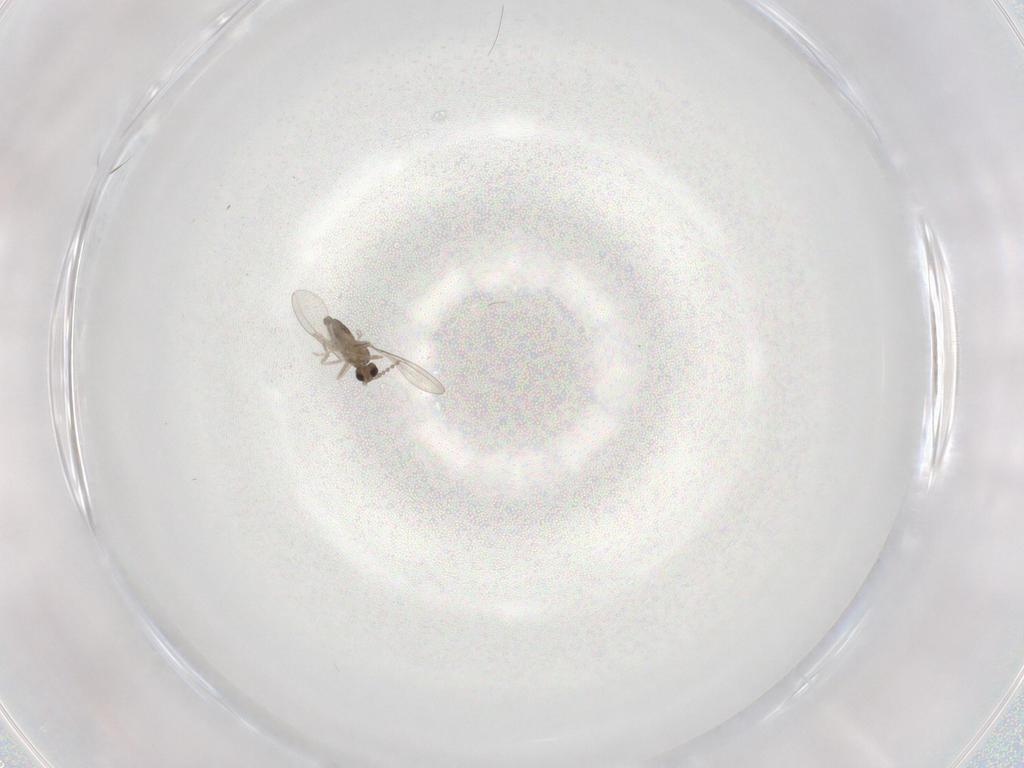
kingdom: Animalia
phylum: Arthropoda
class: Insecta
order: Diptera
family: Cecidomyiidae
